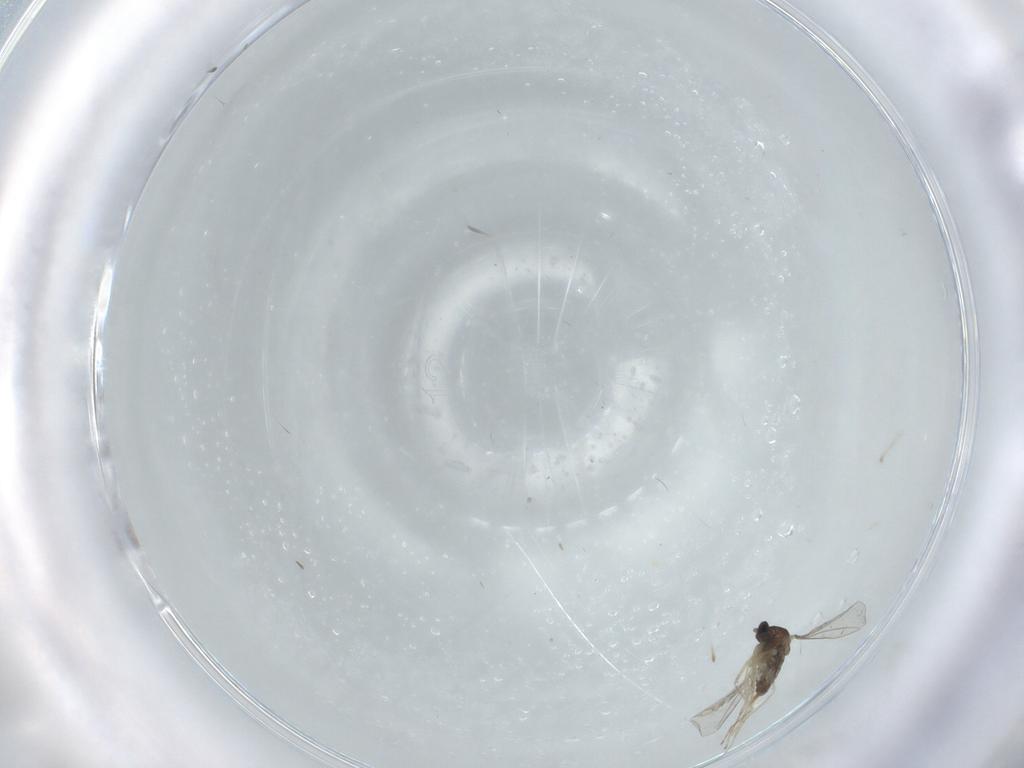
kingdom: Animalia
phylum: Arthropoda
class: Insecta
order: Diptera
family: Cecidomyiidae
